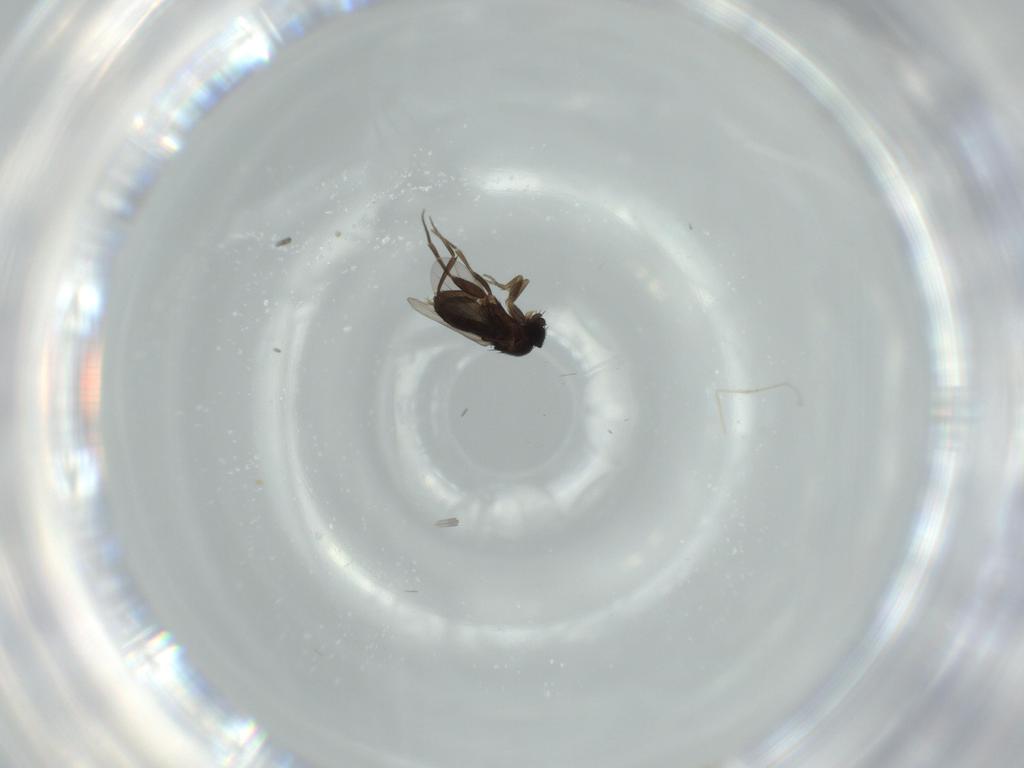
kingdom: Animalia
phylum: Arthropoda
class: Insecta
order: Diptera
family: Phoridae
